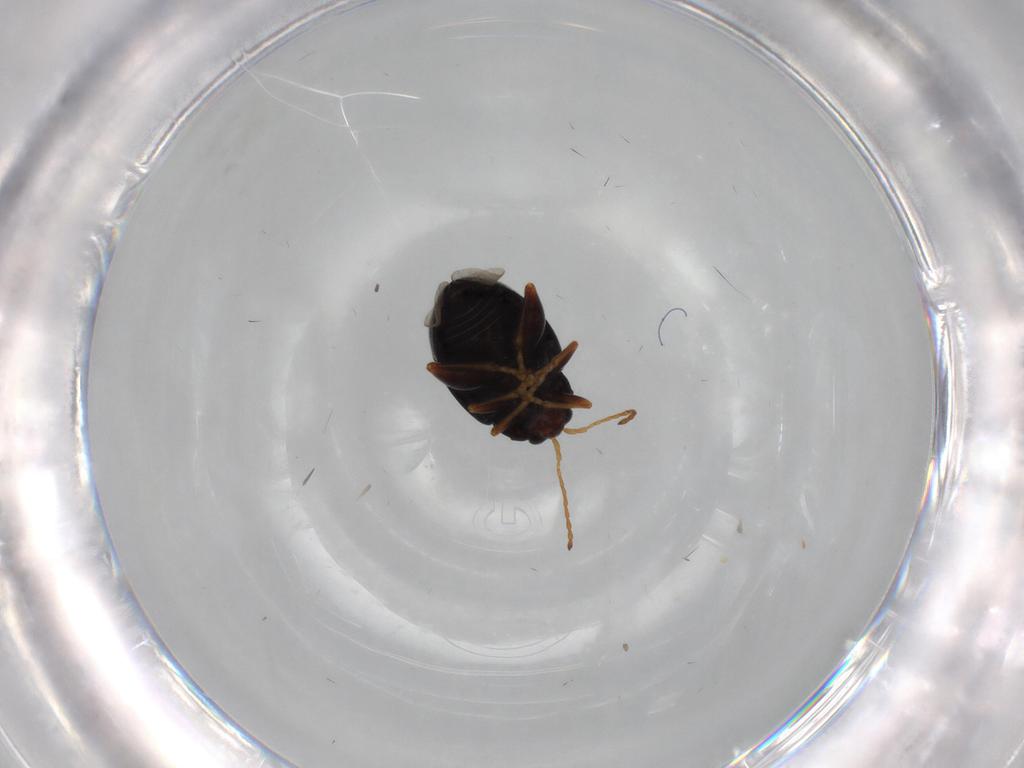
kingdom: Animalia
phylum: Arthropoda
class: Insecta
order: Coleoptera
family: Chrysomelidae
